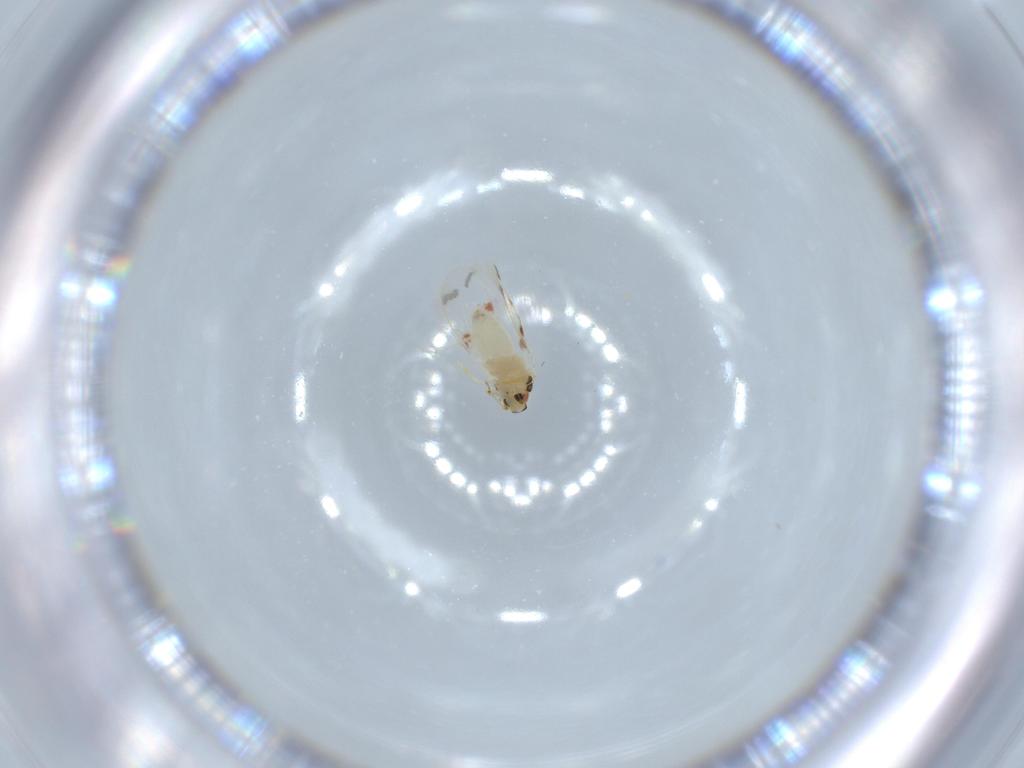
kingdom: Animalia
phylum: Arthropoda
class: Insecta
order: Hemiptera
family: Aleyrodidae
